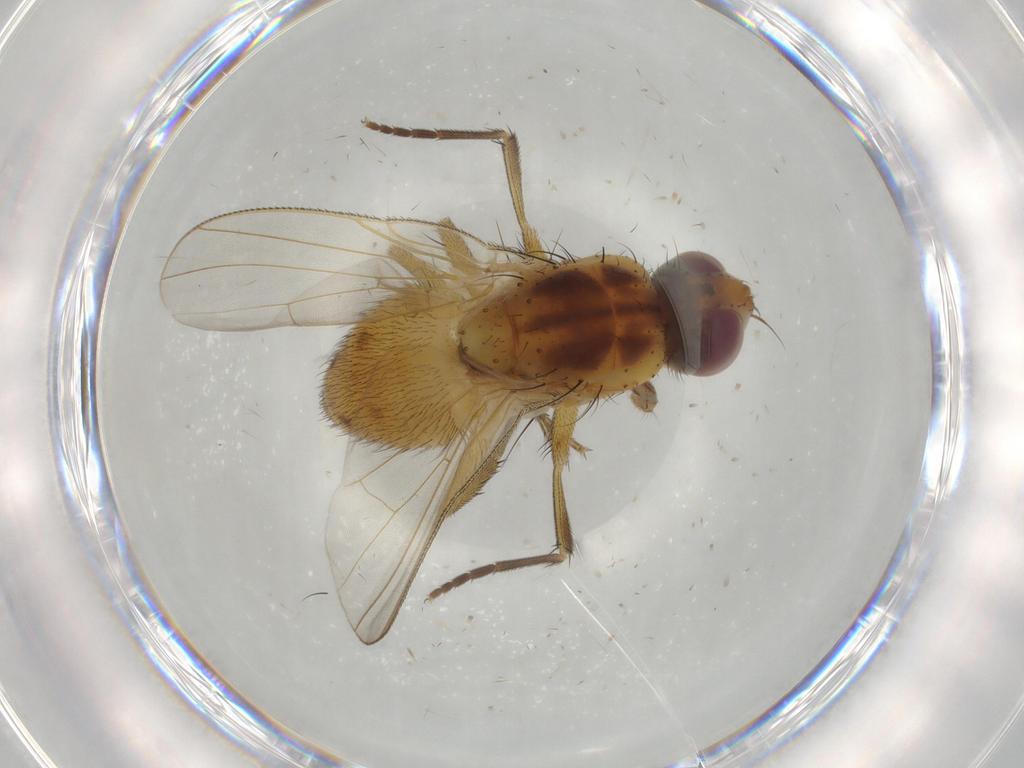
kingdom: Animalia
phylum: Arthropoda
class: Insecta
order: Diptera
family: Muscidae
